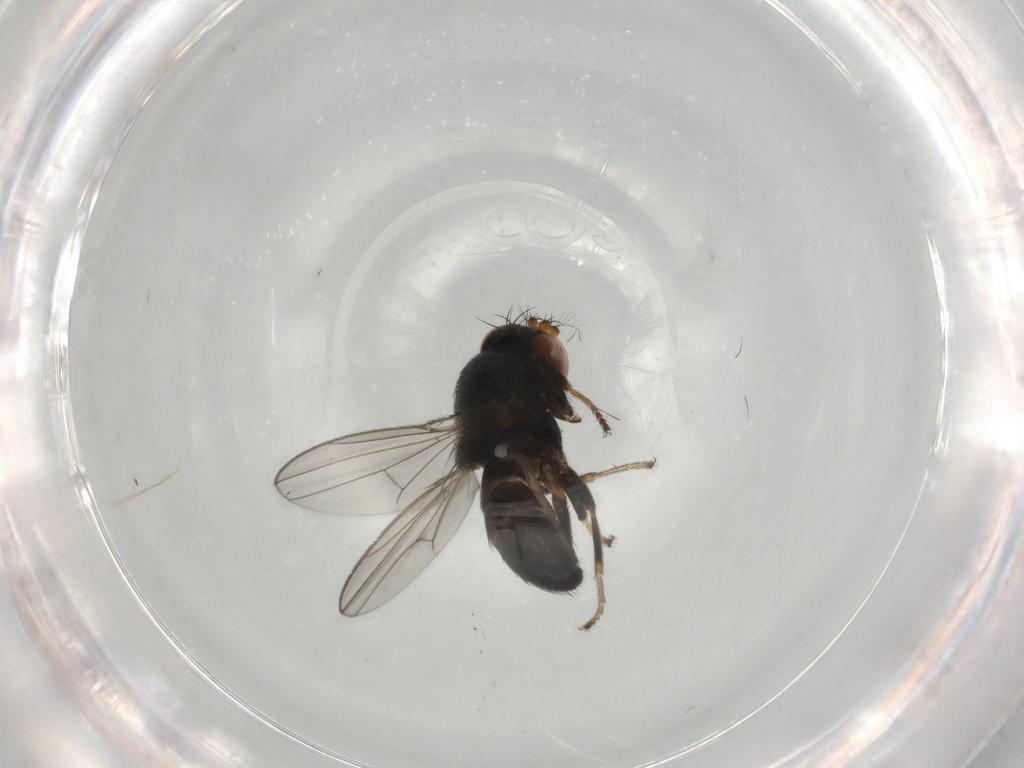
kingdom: Animalia
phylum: Arthropoda
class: Insecta
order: Diptera
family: Ephydridae
